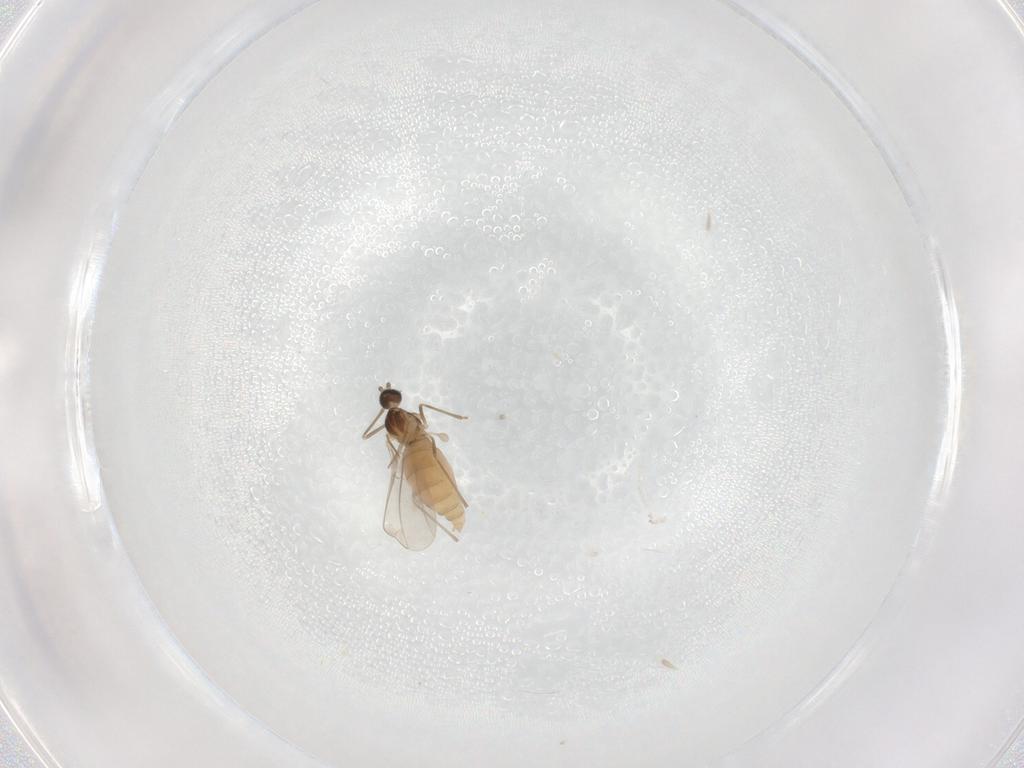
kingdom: Animalia
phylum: Arthropoda
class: Insecta
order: Diptera
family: Cecidomyiidae
